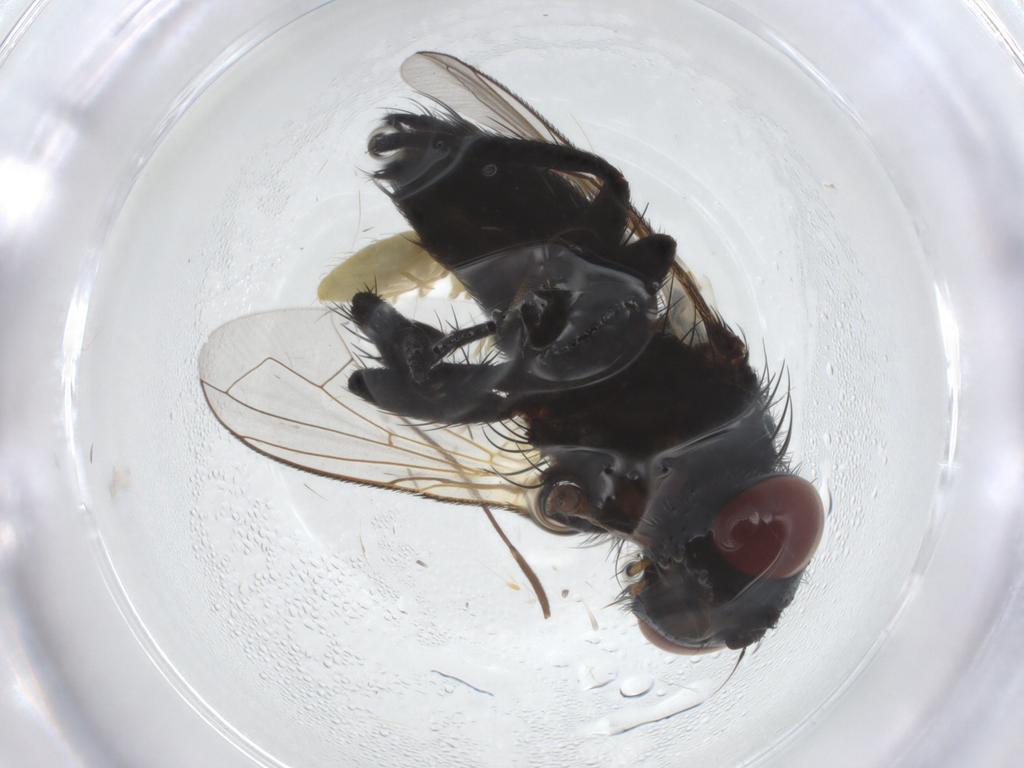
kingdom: Animalia
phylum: Arthropoda
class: Insecta
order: Diptera
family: Tachinidae
